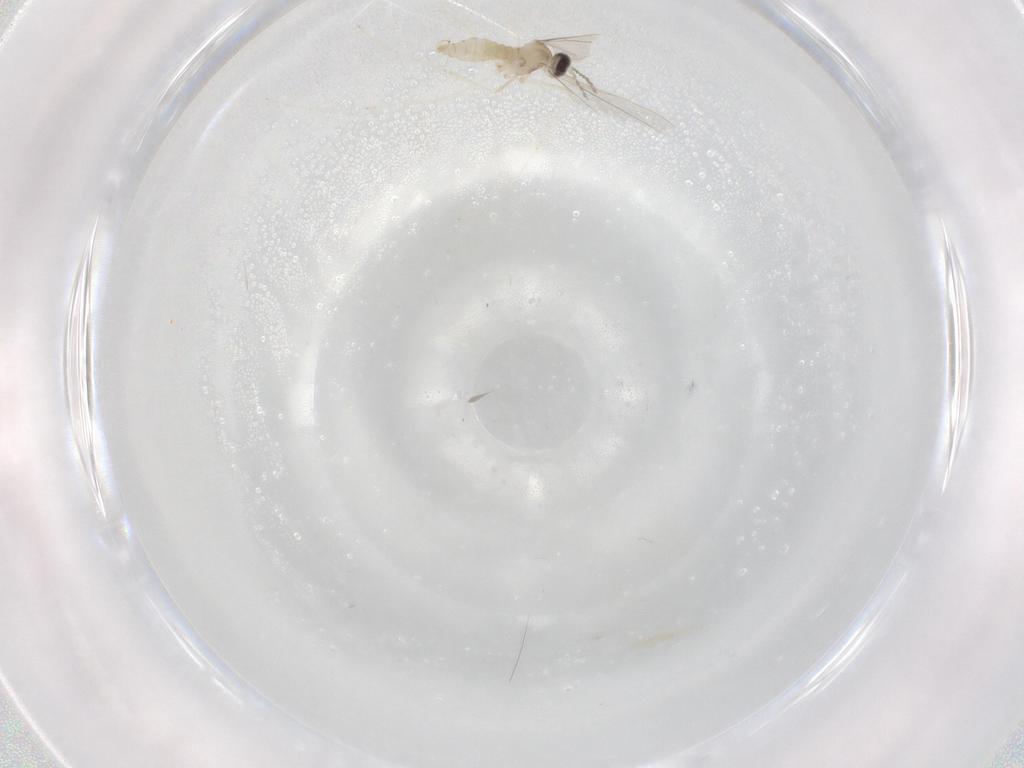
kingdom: Animalia
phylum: Arthropoda
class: Insecta
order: Diptera
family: Cecidomyiidae
